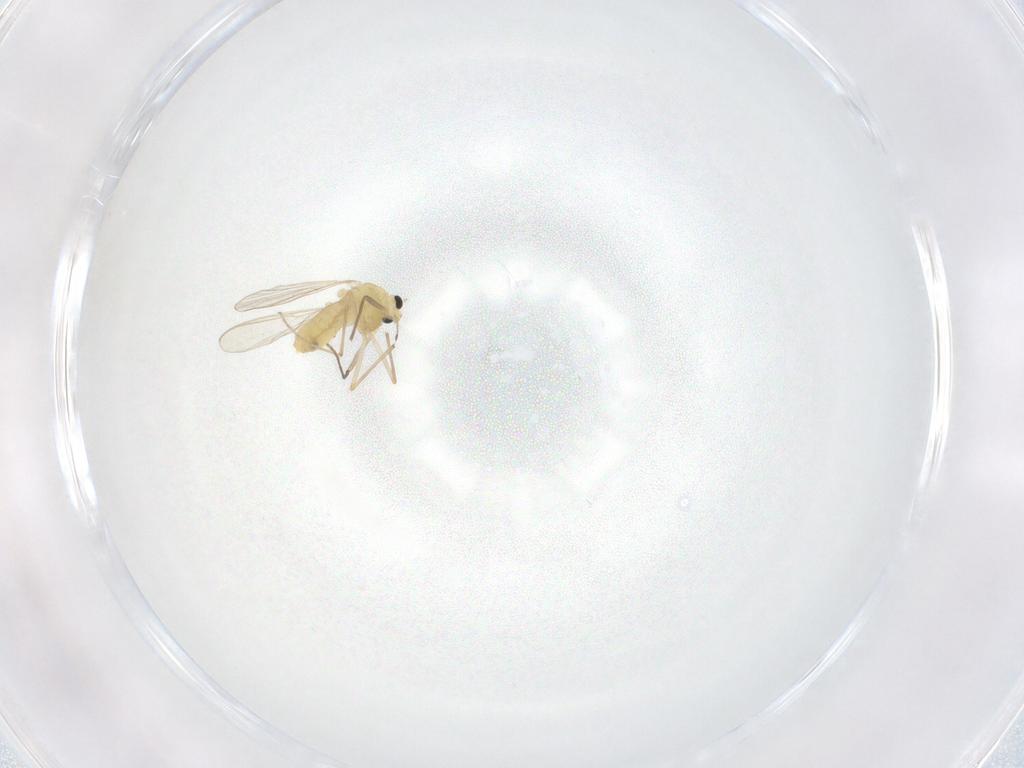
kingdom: Animalia
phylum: Arthropoda
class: Insecta
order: Diptera
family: Chironomidae
